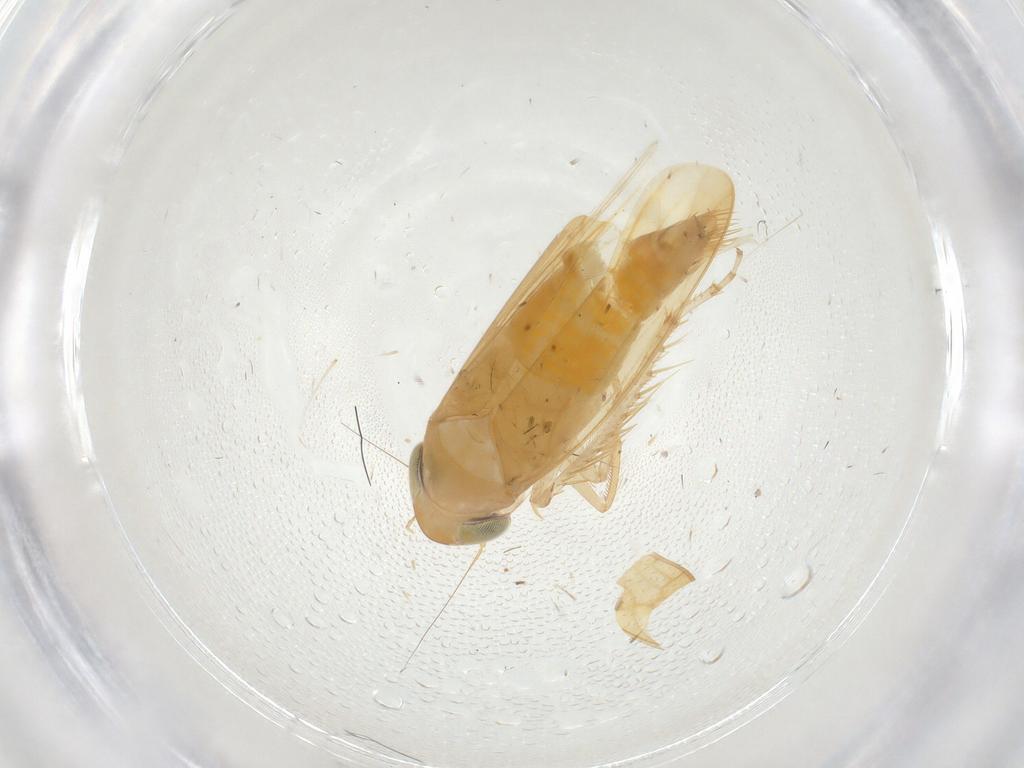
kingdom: Animalia
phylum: Arthropoda
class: Insecta
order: Hemiptera
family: Cicadellidae
